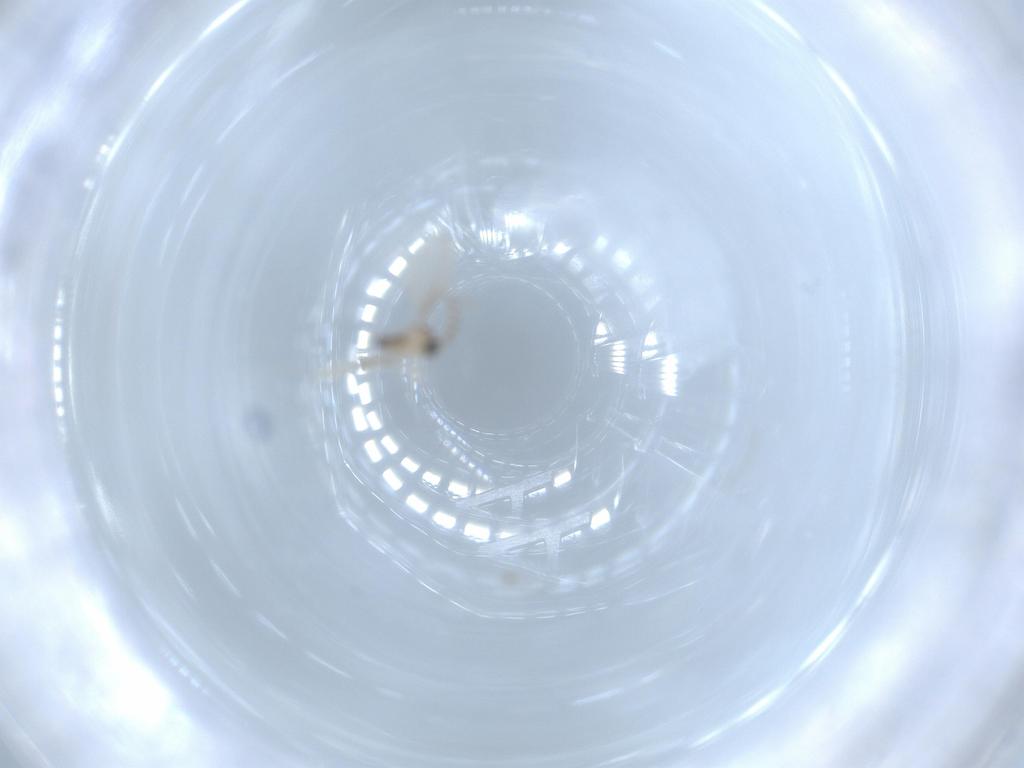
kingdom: Animalia
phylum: Arthropoda
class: Insecta
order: Diptera
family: Cecidomyiidae
